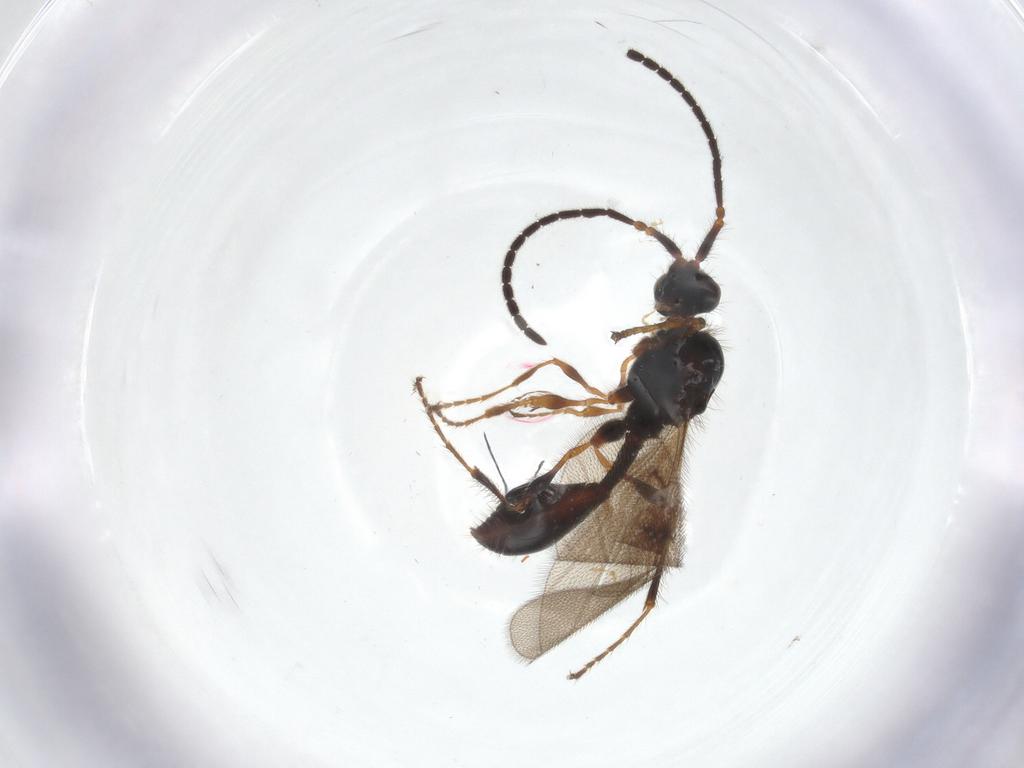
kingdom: Animalia
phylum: Arthropoda
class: Insecta
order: Hymenoptera
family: Diapriidae
